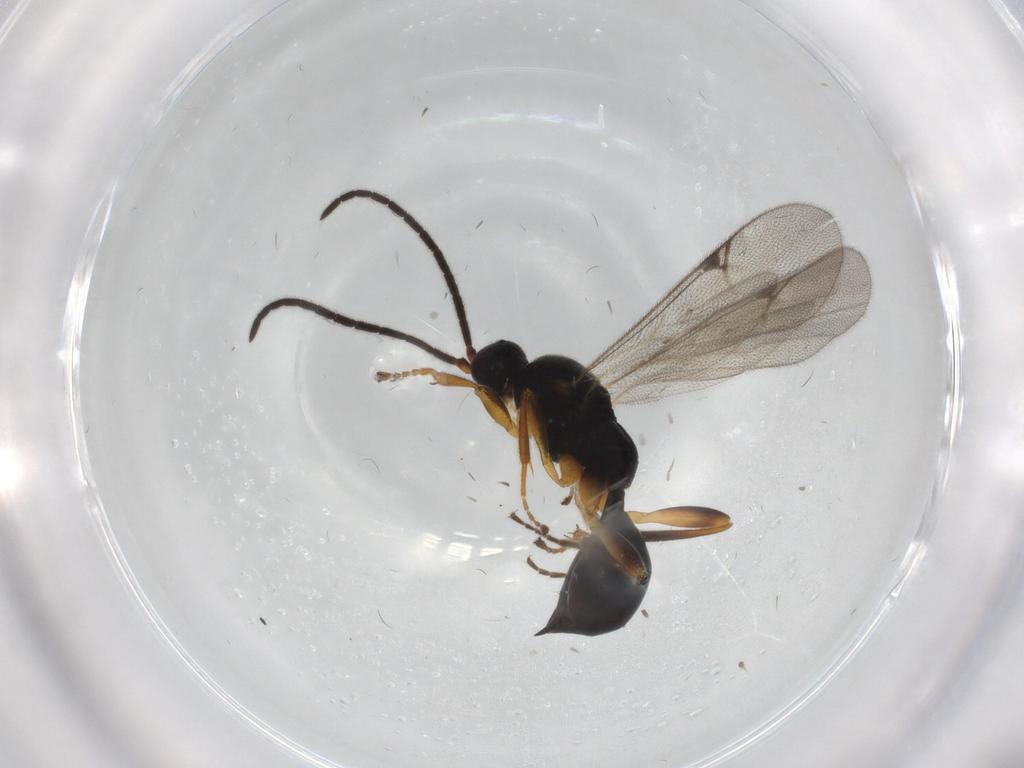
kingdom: Animalia
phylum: Arthropoda
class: Insecta
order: Hymenoptera
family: Proctotrupidae
